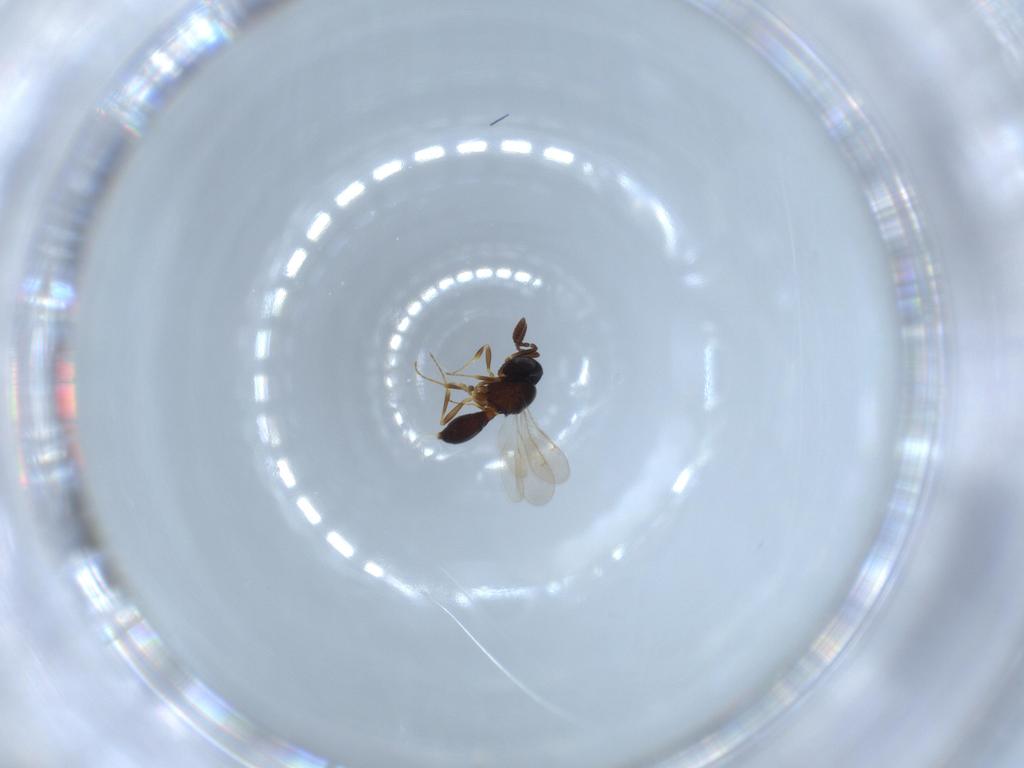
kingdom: Animalia
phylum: Arthropoda
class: Insecta
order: Hymenoptera
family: Scelionidae
